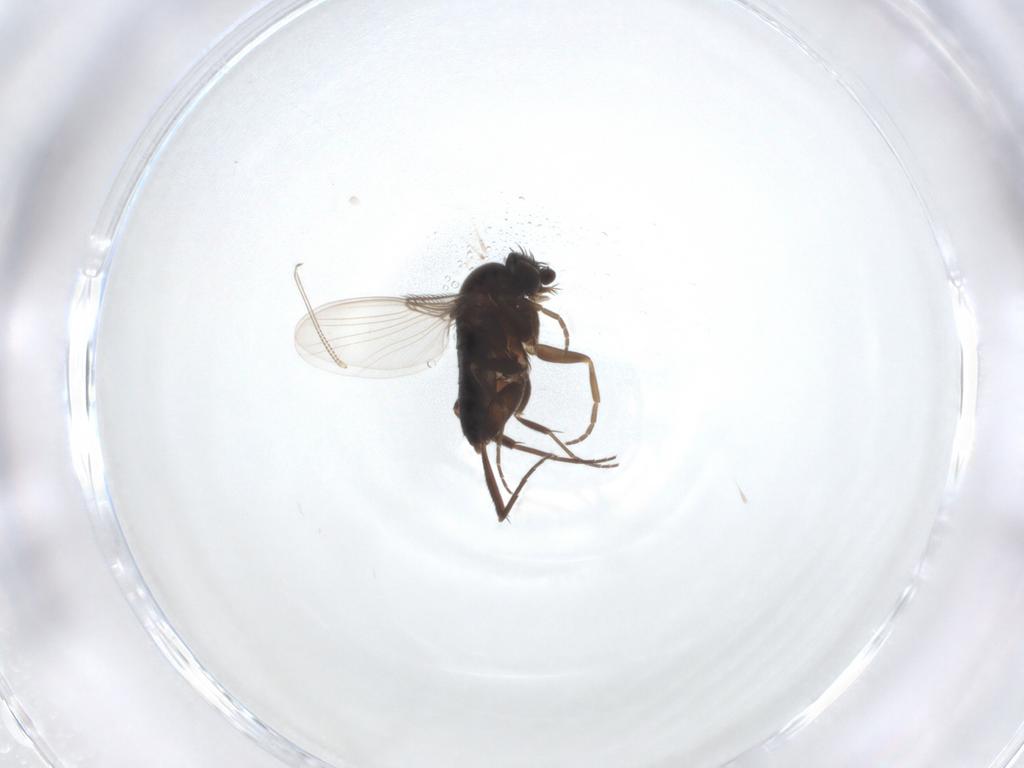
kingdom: Animalia
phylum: Arthropoda
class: Insecta
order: Diptera
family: Phoridae
